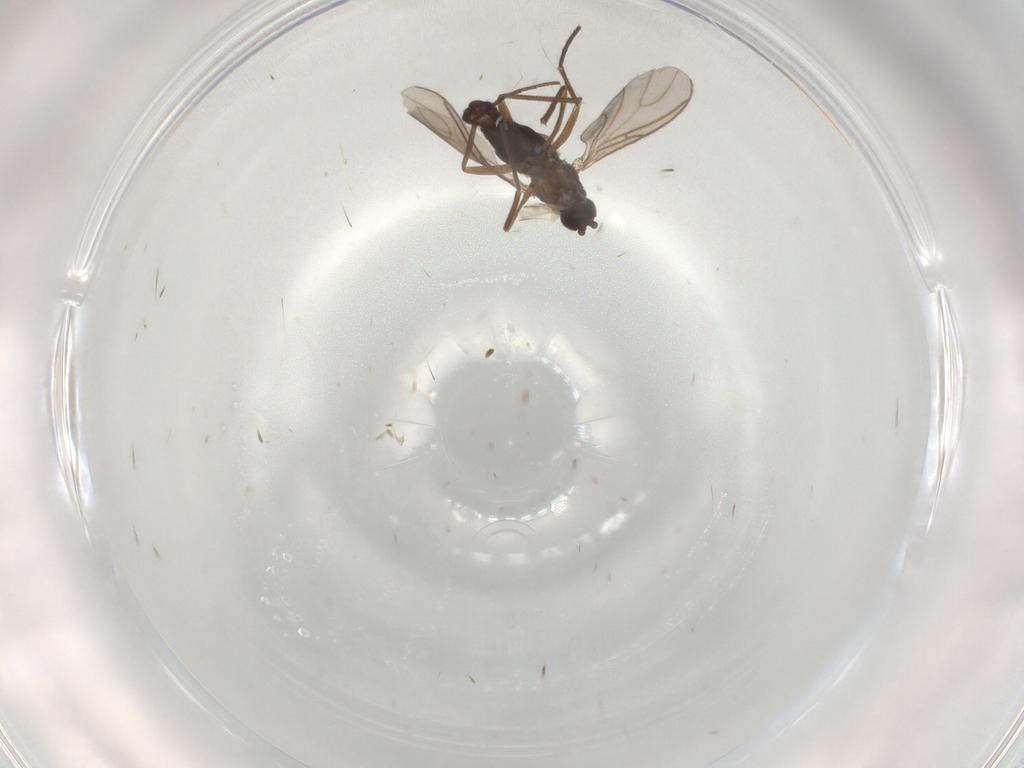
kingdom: Animalia
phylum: Arthropoda
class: Insecta
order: Diptera
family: Sciaridae
